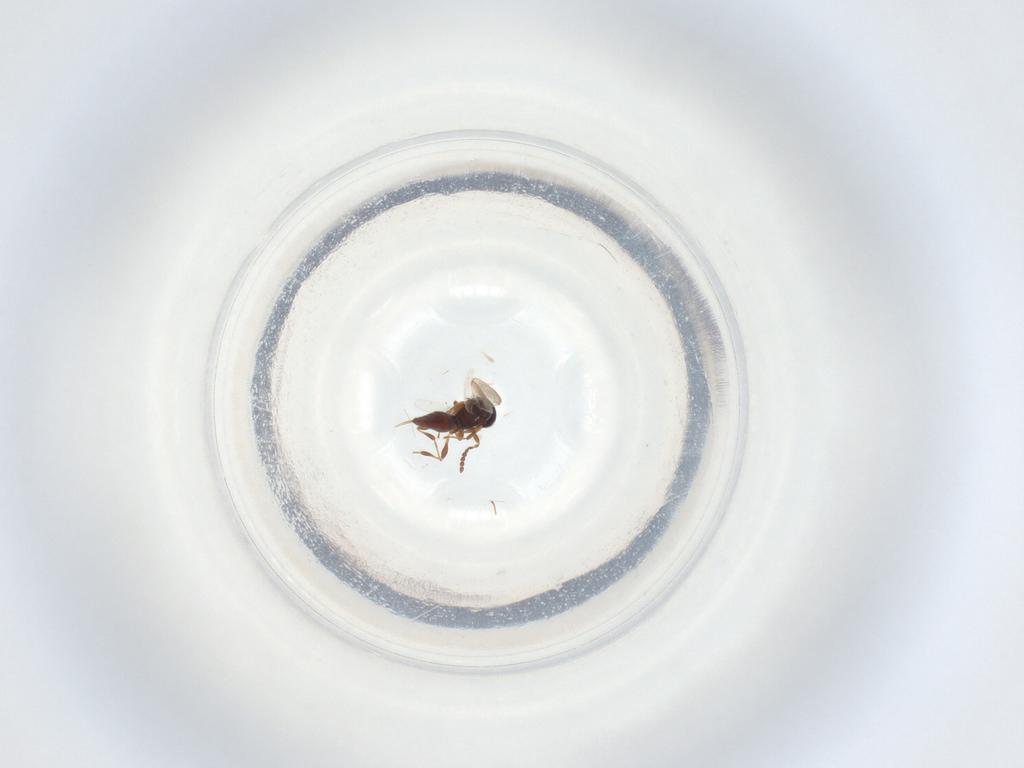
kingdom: Animalia
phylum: Arthropoda
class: Insecta
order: Hymenoptera
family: Platygastridae
